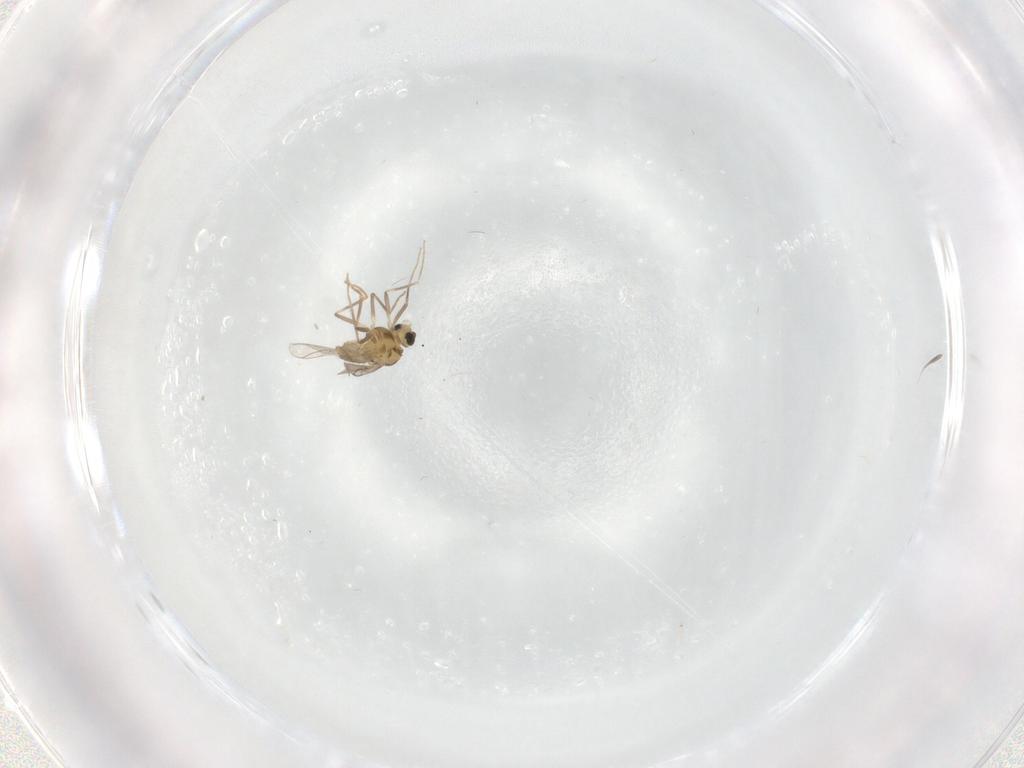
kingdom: Animalia
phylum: Arthropoda
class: Insecta
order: Diptera
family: Chironomidae
